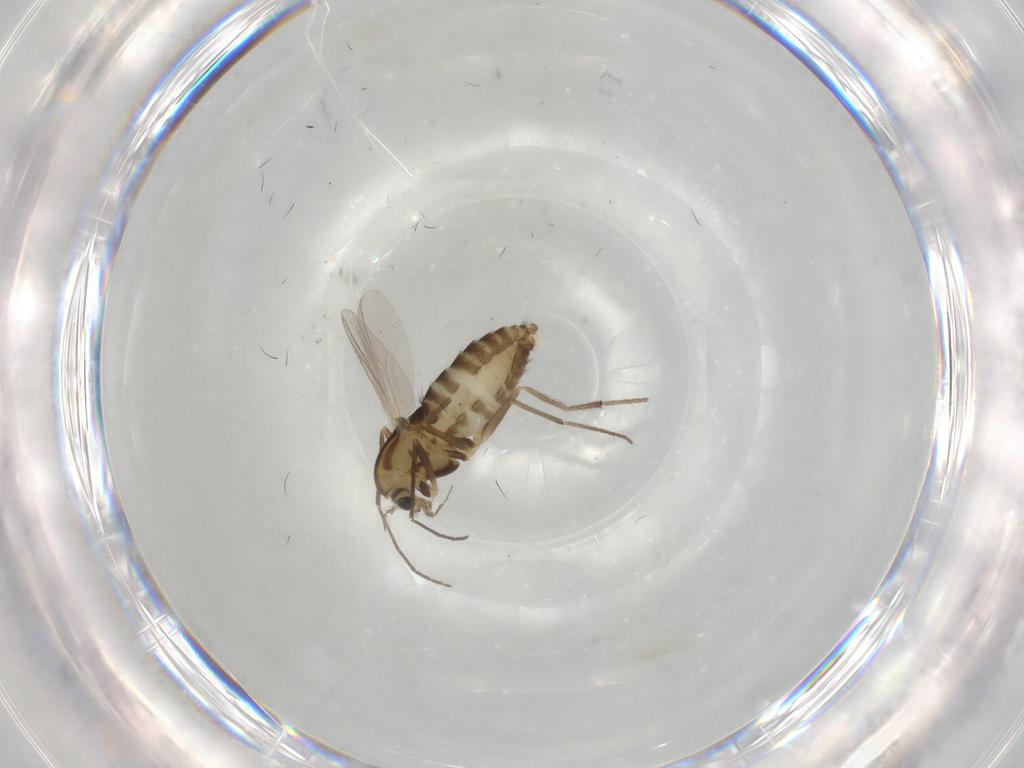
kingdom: Animalia
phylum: Arthropoda
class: Insecta
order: Diptera
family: Chironomidae
